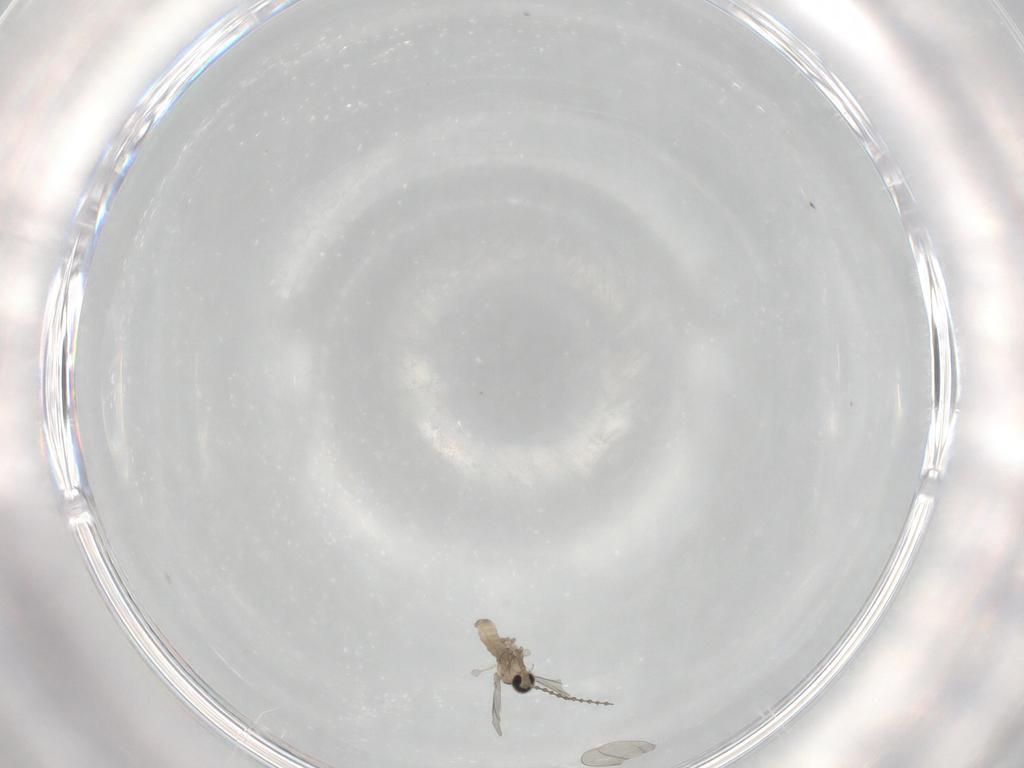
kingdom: Animalia
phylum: Arthropoda
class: Insecta
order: Diptera
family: Cecidomyiidae
